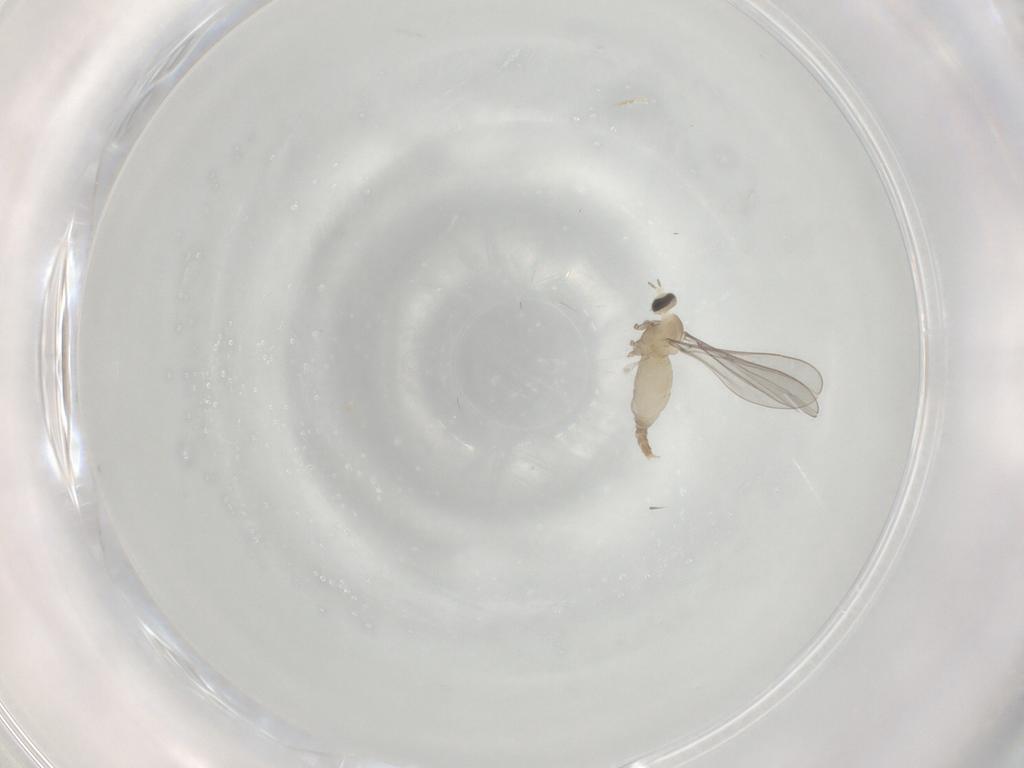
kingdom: Animalia
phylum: Arthropoda
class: Insecta
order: Diptera
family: Cecidomyiidae
